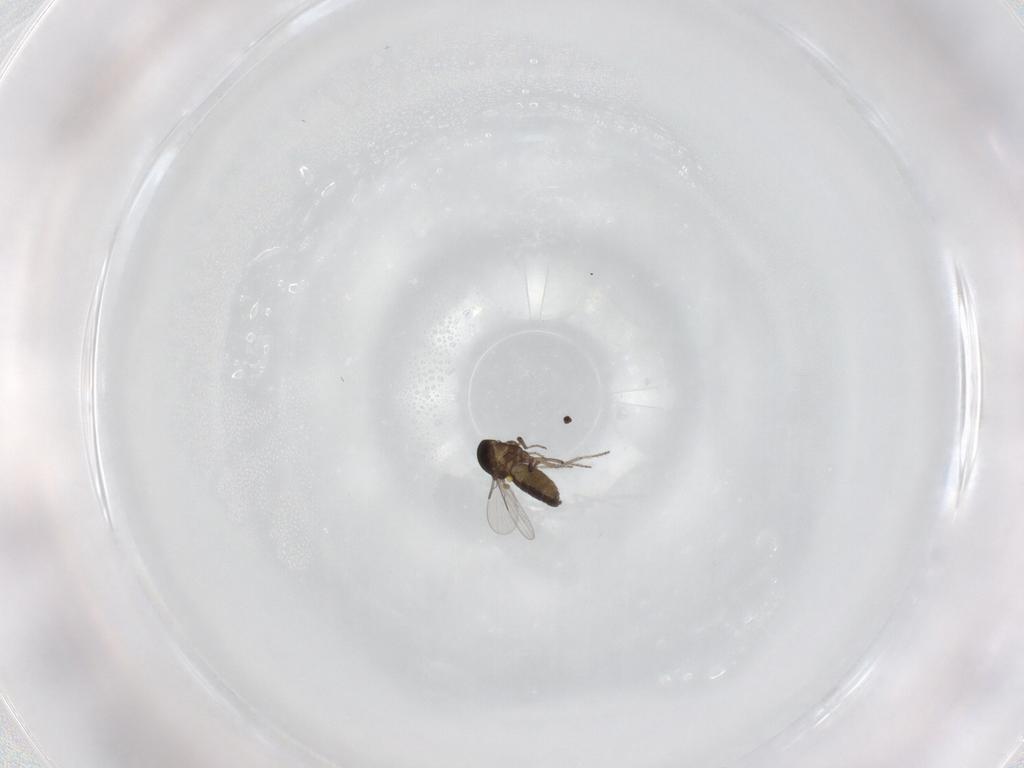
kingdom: Animalia
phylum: Arthropoda
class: Insecta
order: Diptera
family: Ceratopogonidae
